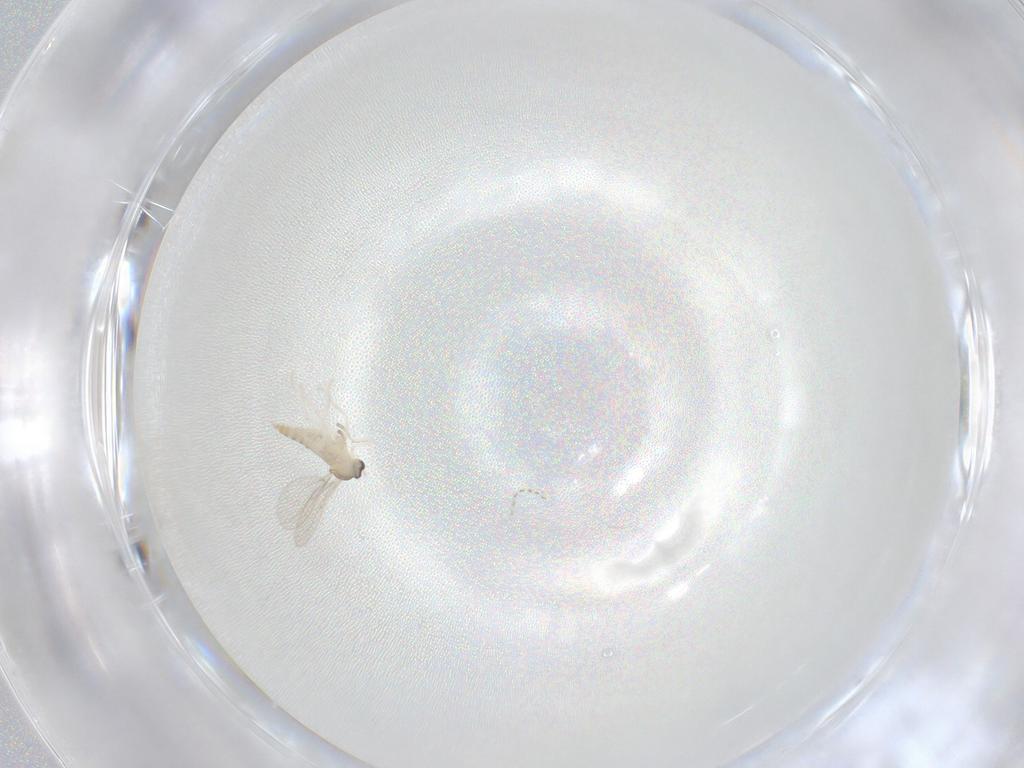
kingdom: Animalia
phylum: Arthropoda
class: Insecta
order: Diptera
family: Cecidomyiidae
